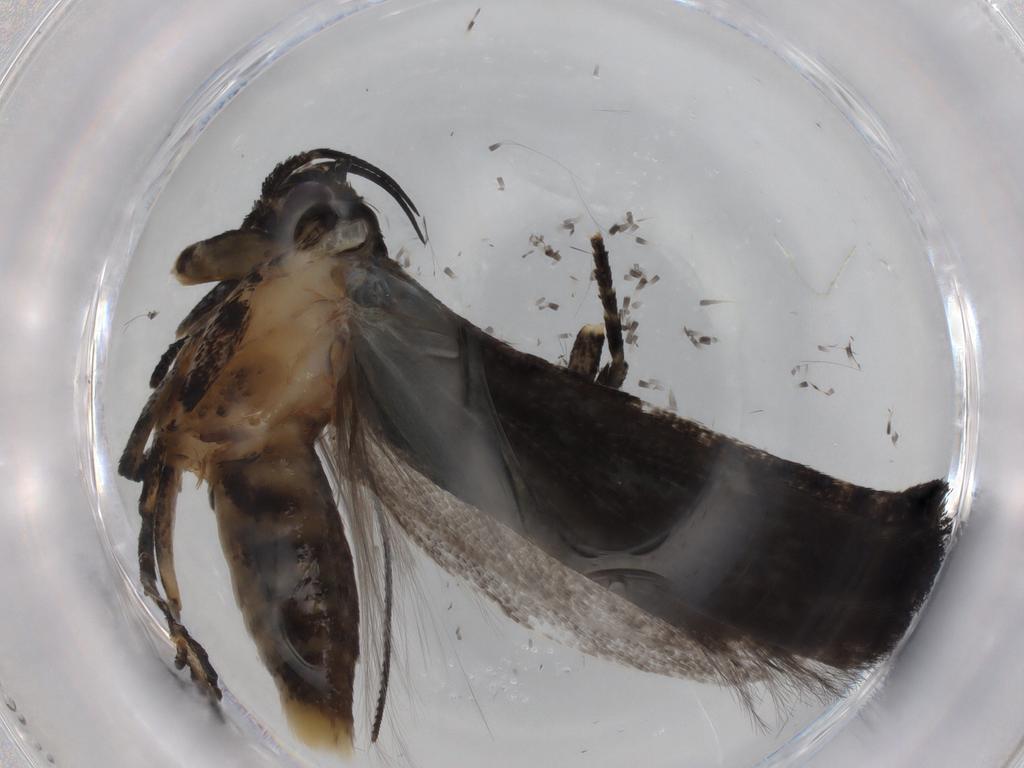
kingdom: Animalia
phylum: Arthropoda
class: Insecta
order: Lepidoptera
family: Gelechiidae
